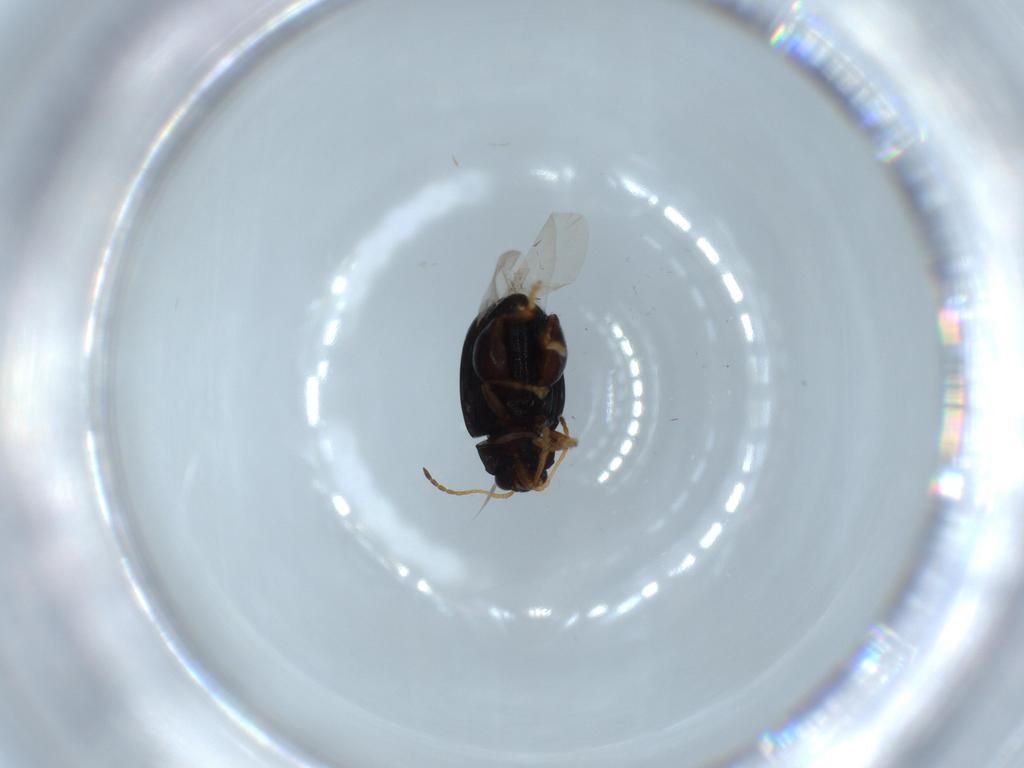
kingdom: Animalia
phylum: Arthropoda
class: Insecta
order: Coleoptera
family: Chrysomelidae
